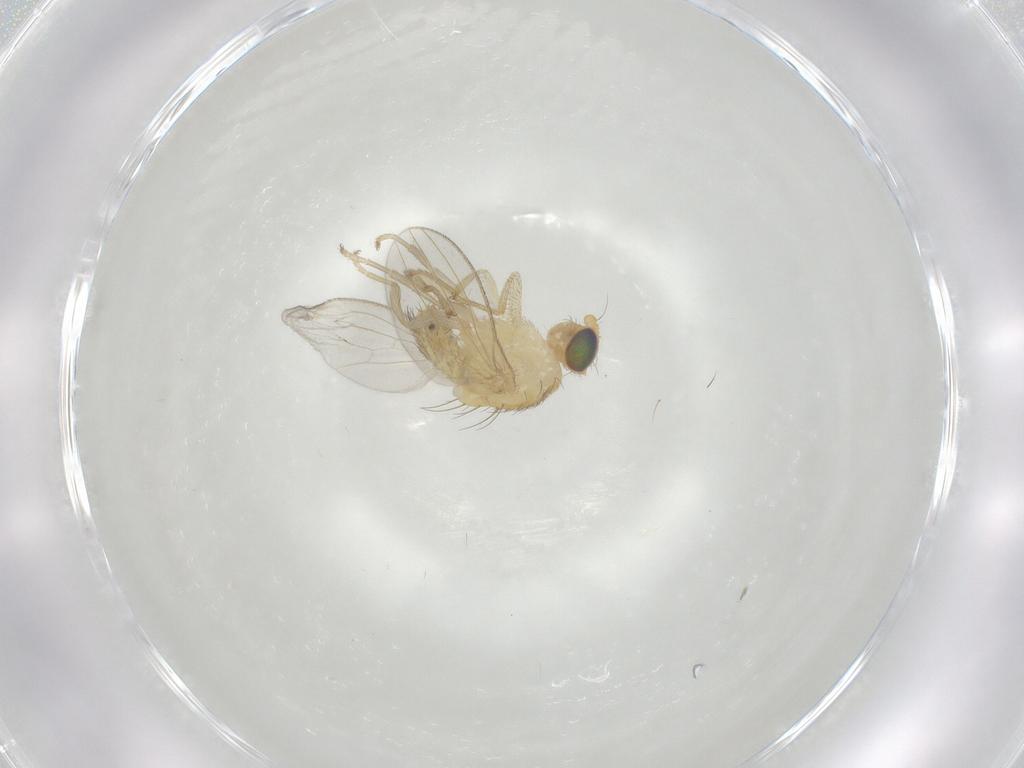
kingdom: Animalia
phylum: Arthropoda
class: Insecta
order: Diptera
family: Chyromyidae
